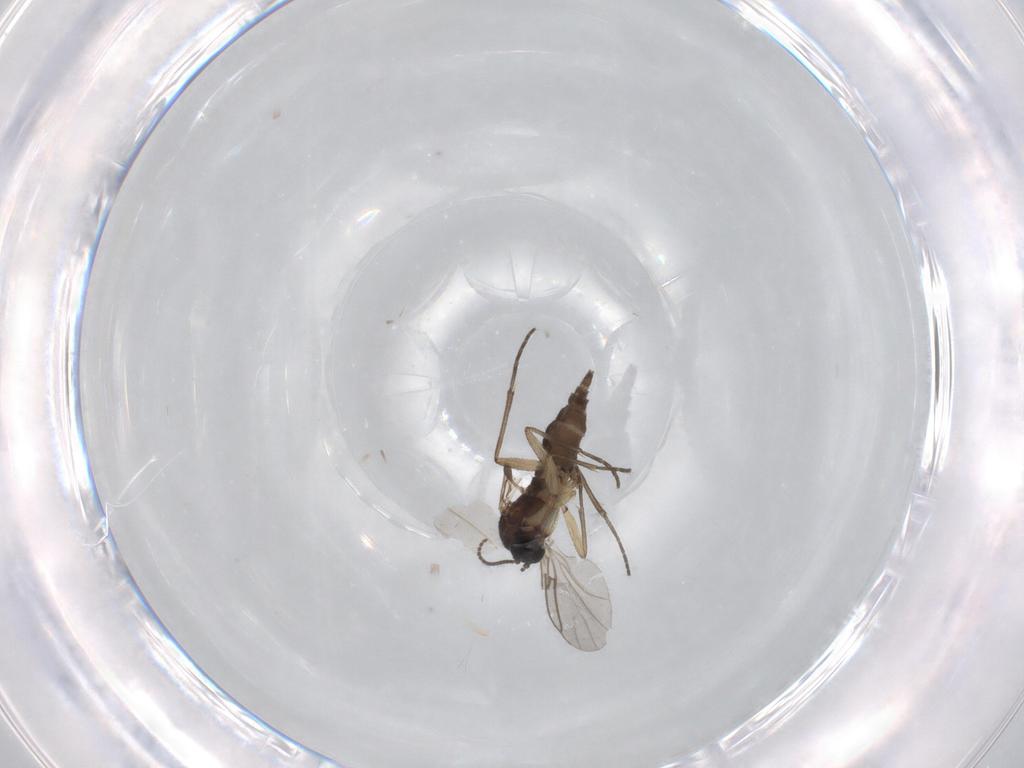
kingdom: Animalia
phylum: Arthropoda
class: Insecta
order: Diptera
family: Sciaridae
